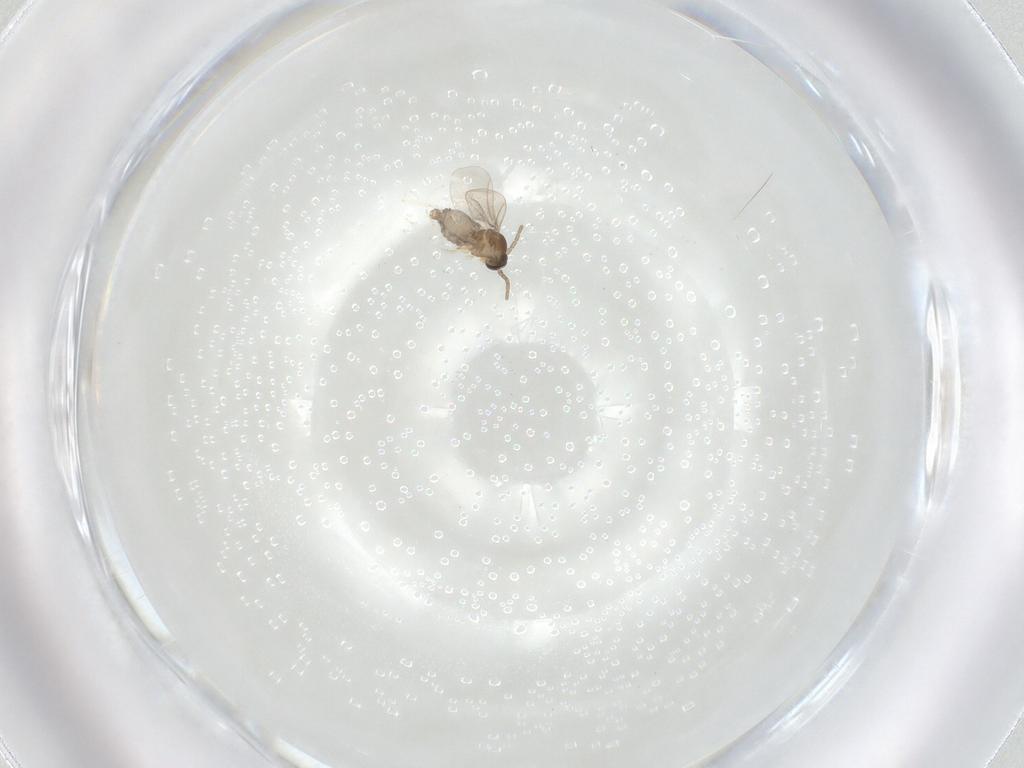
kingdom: Animalia
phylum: Arthropoda
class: Insecta
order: Diptera
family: Cecidomyiidae
